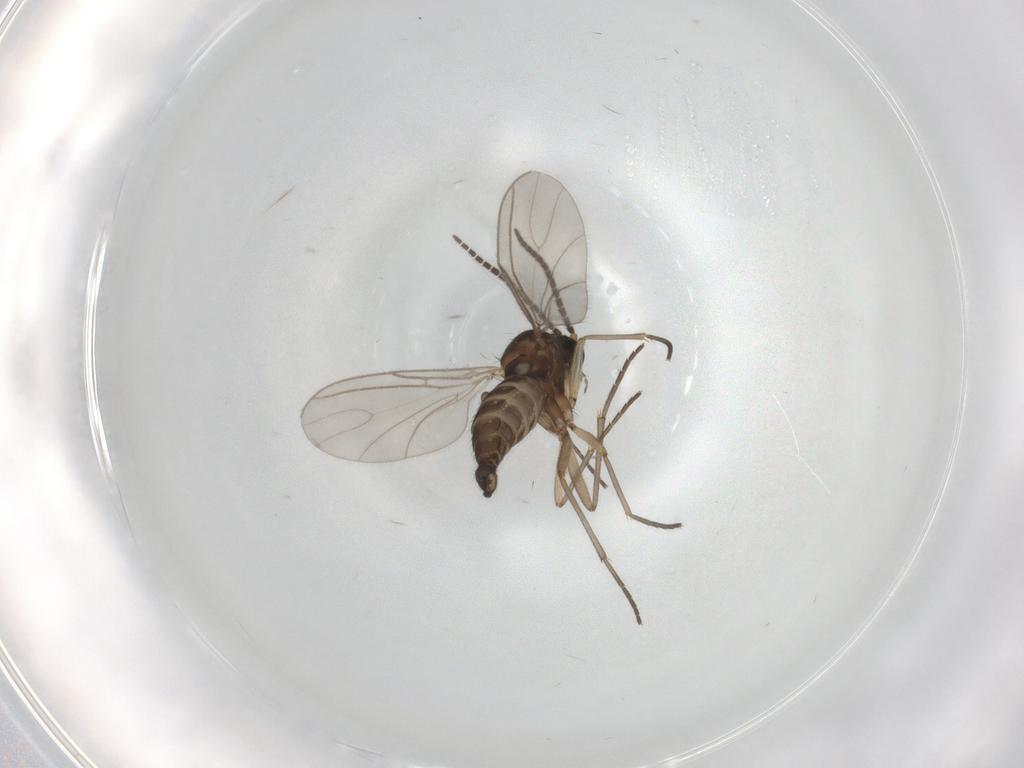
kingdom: Animalia
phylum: Arthropoda
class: Insecta
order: Diptera
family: Sciaridae
